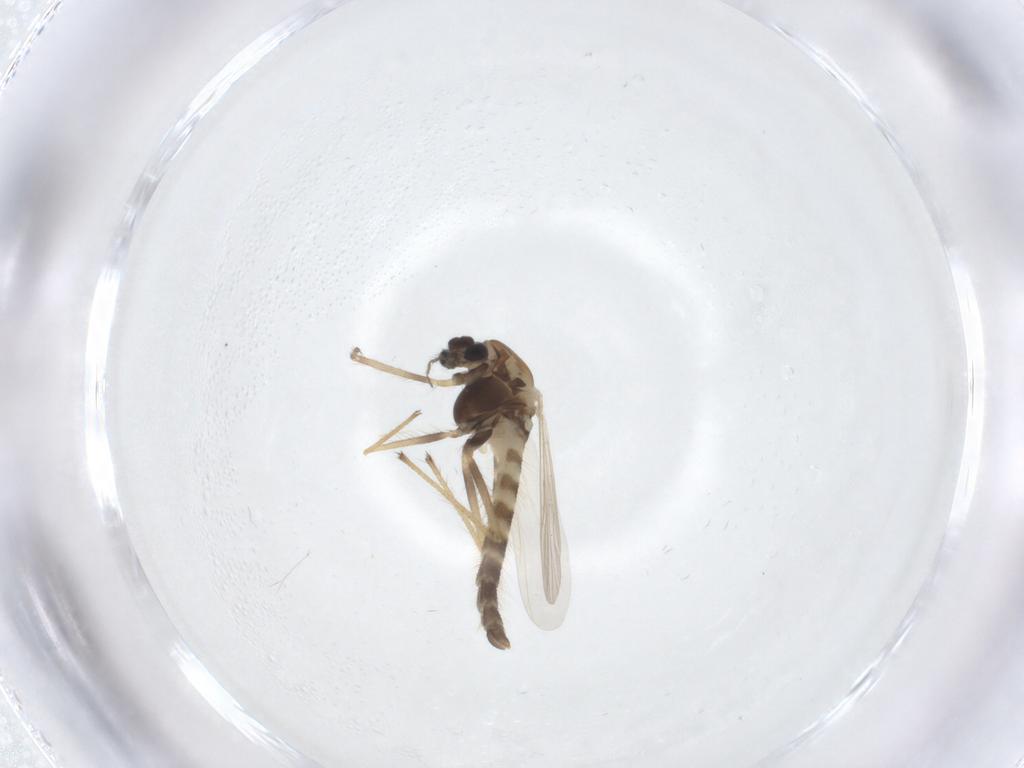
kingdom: Animalia
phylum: Arthropoda
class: Insecta
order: Diptera
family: Chironomidae
